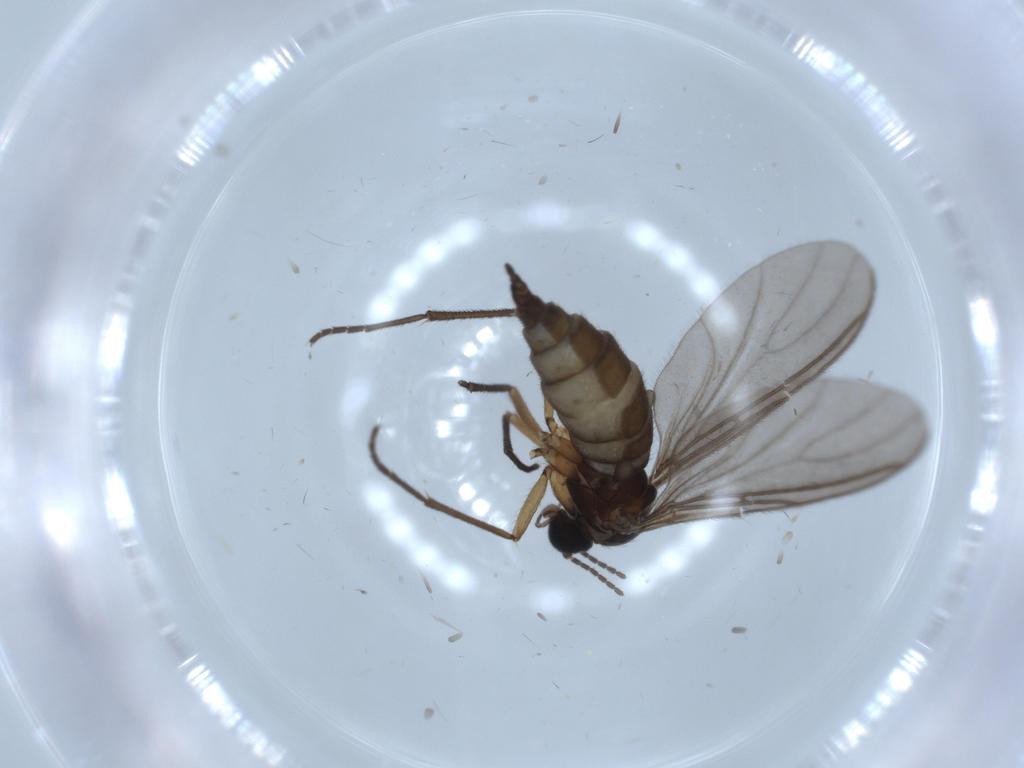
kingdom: Animalia
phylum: Arthropoda
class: Insecta
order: Diptera
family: Sciaridae
